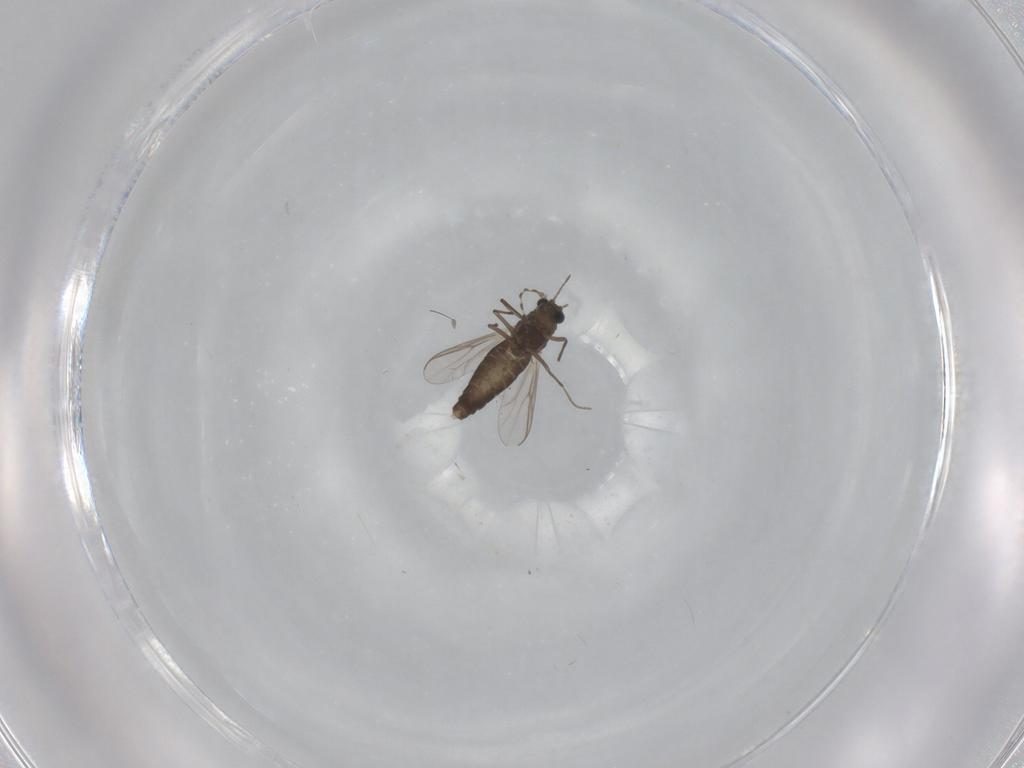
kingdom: Animalia
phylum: Arthropoda
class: Insecta
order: Diptera
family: Chironomidae
